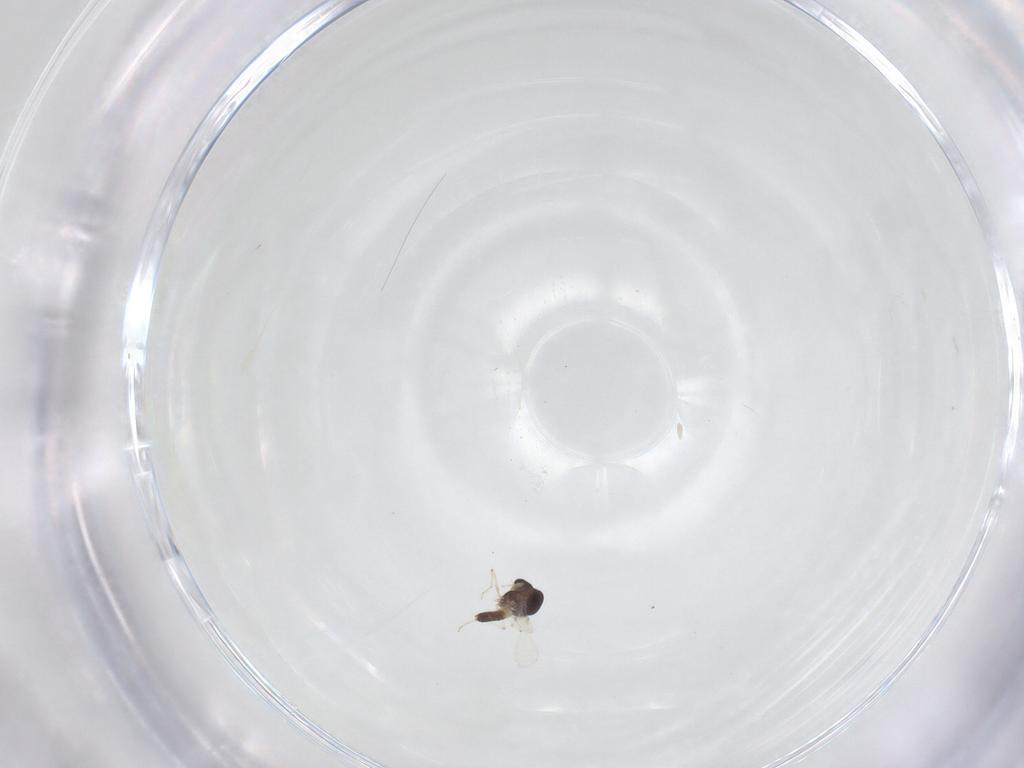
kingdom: Animalia
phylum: Arthropoda
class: Insecta
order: Diptera
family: Chironomidae
